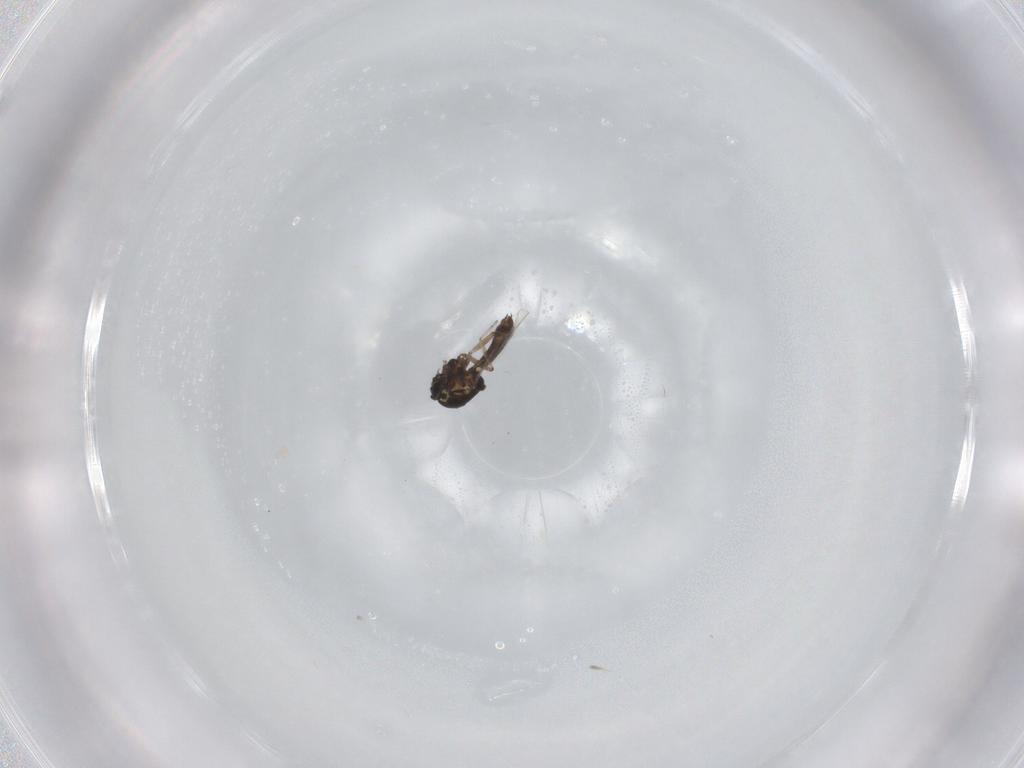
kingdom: Animalia
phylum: Arthropoda
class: Insecta
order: Diptera
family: Ceratopogonidae
